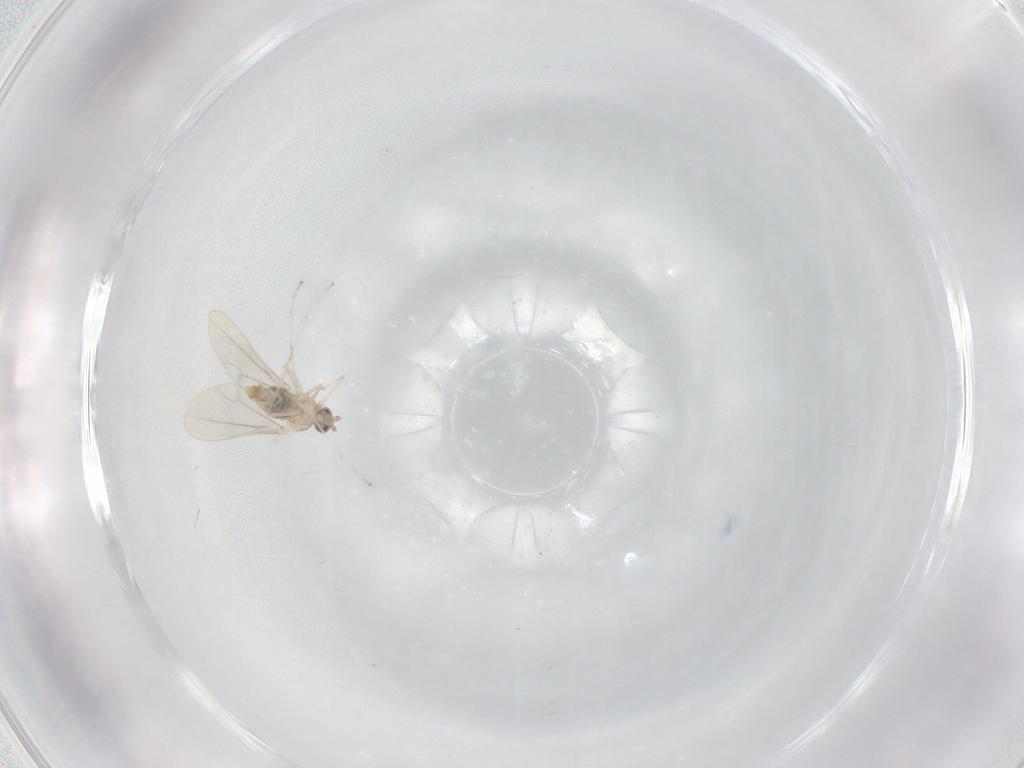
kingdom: Animalia
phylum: Arthropoda
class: Insecta
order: Diptera
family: Cecidomyiidae
